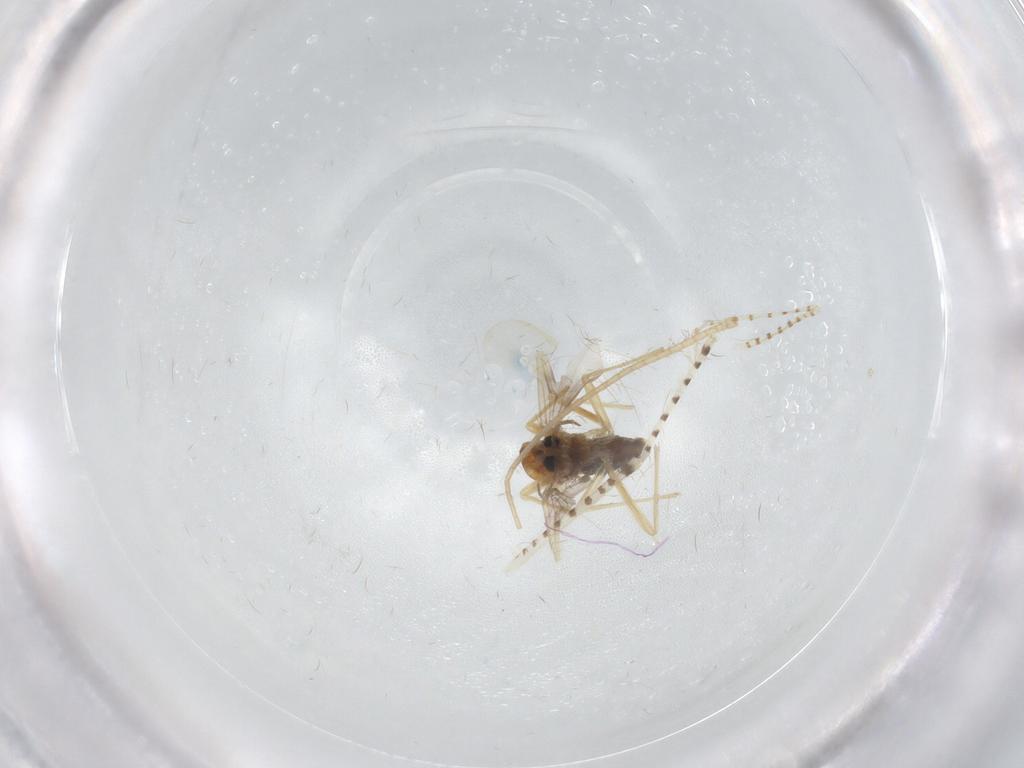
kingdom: Animalia
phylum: Arthropoda
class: Insecta
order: Diptera
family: Chironomidae
